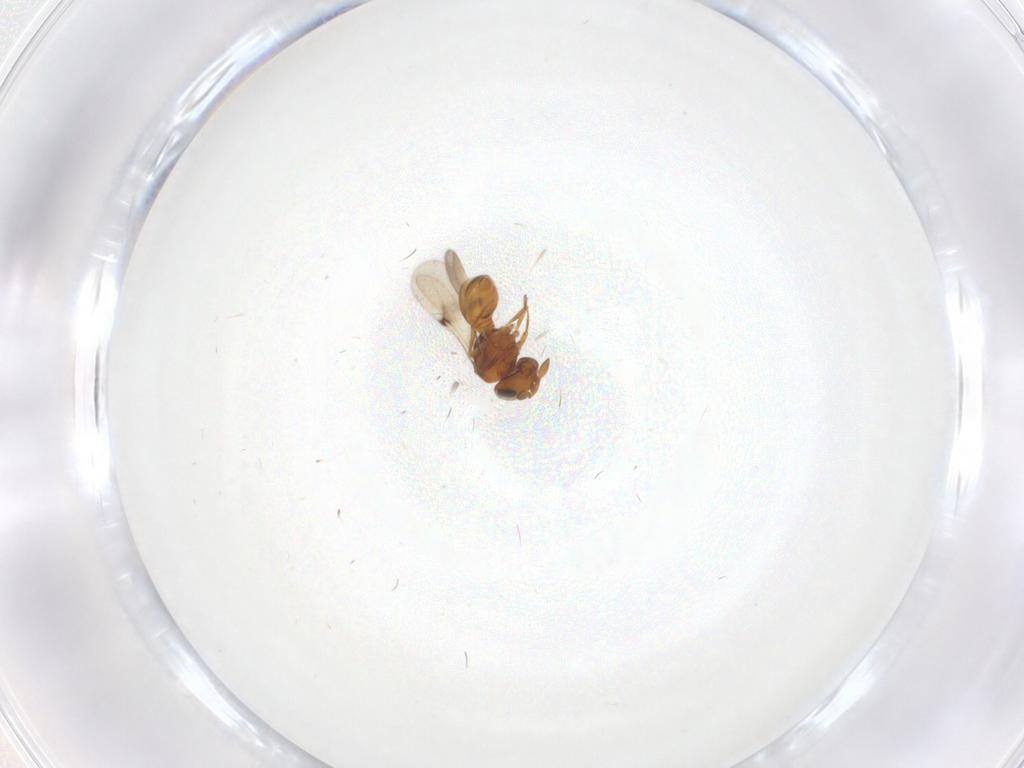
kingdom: Animalia
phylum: Arthropoda
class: Insecta
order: Hymenoptera
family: Scelionidae
